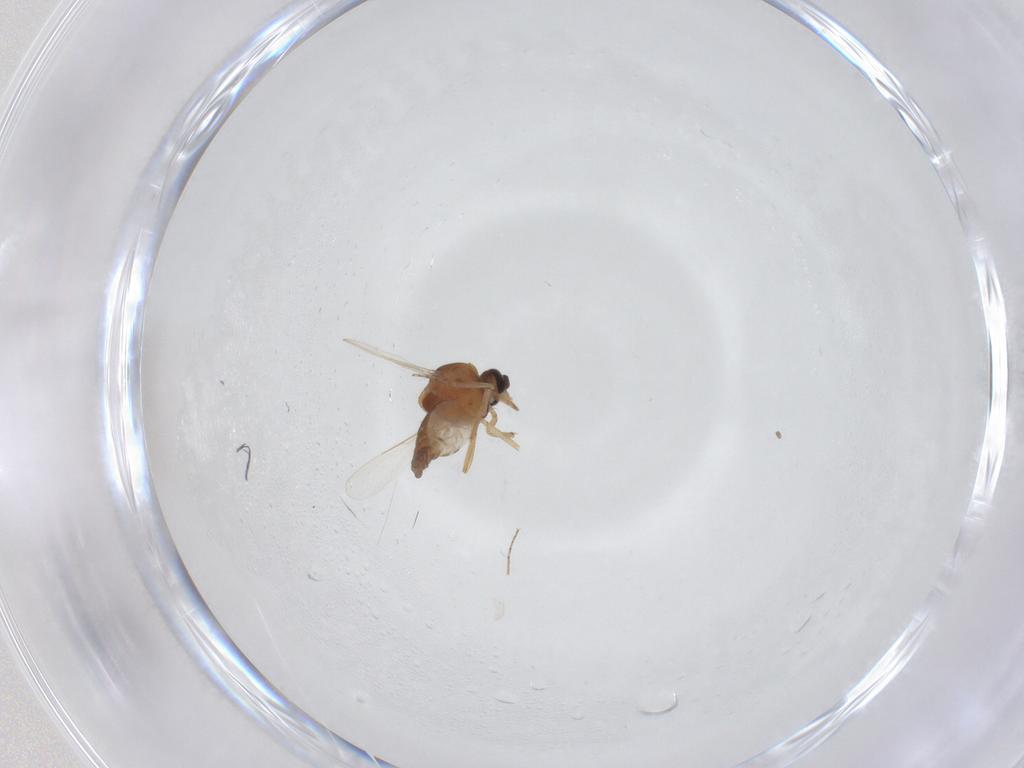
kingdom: Animalia
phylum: Arthropoda
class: Insecta
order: Diptera
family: Ceratopogonidae
